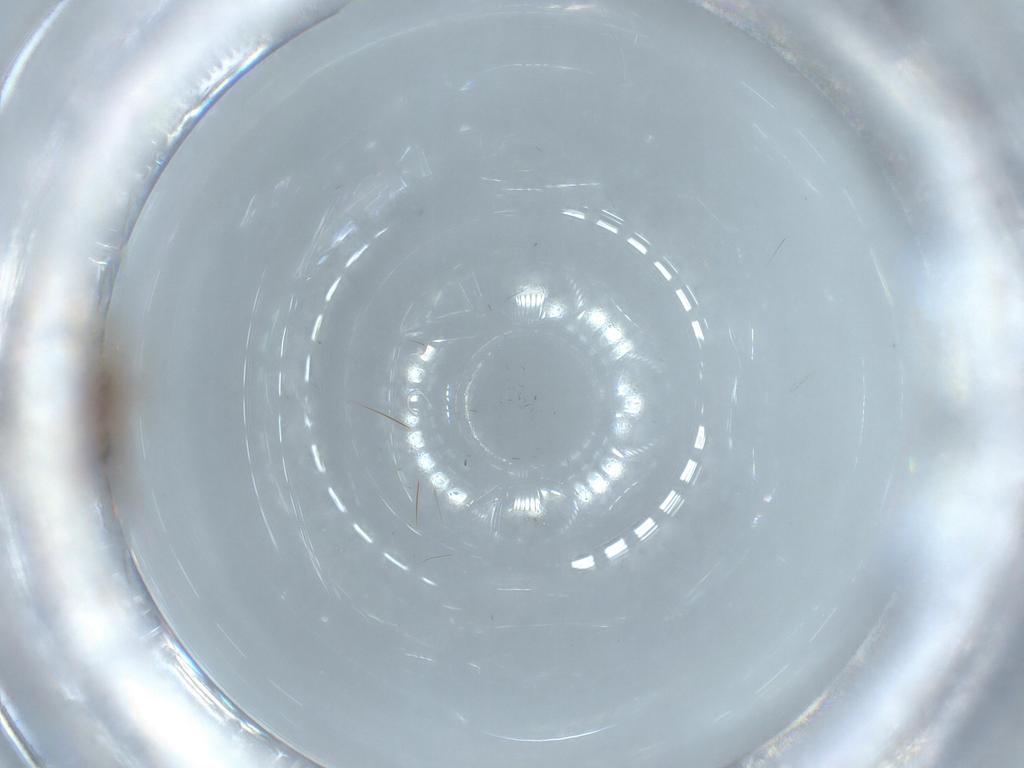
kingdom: Animalia
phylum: Arthropoda
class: Insecta
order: Hymenoptera
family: Scelionidae
